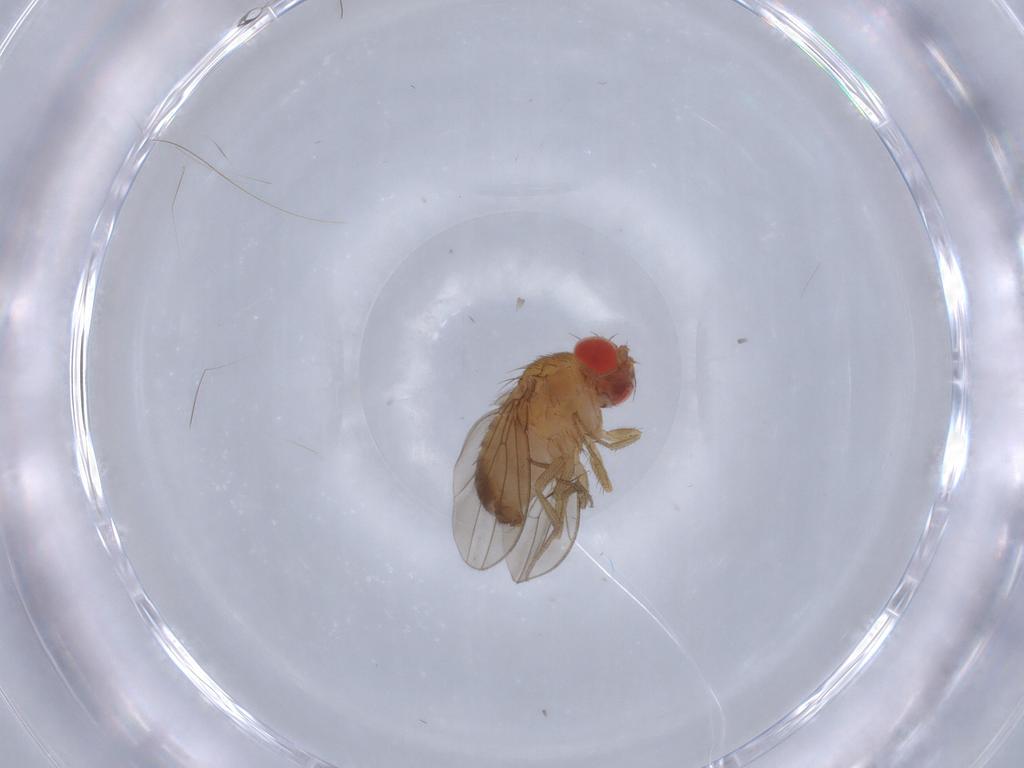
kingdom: Animalia
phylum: Arthropoda
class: Insecta
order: Diptera
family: Drosophilidae
